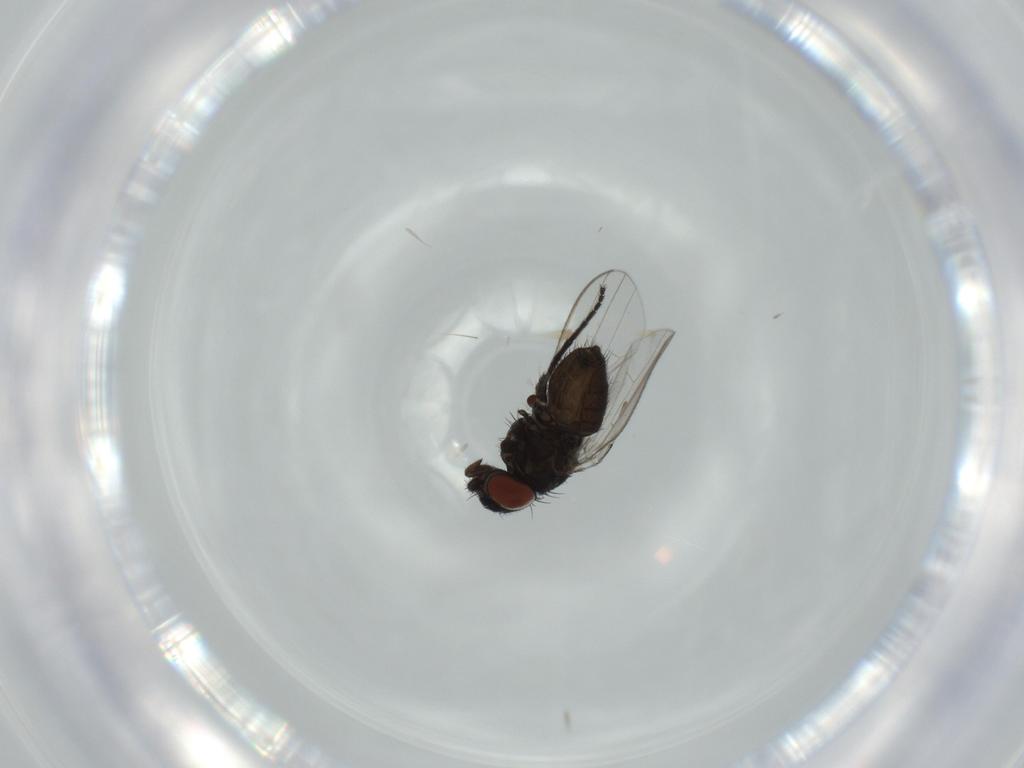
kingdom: Animalia
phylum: Arthropoda
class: Insecta
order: Diptera
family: Milichiidae
